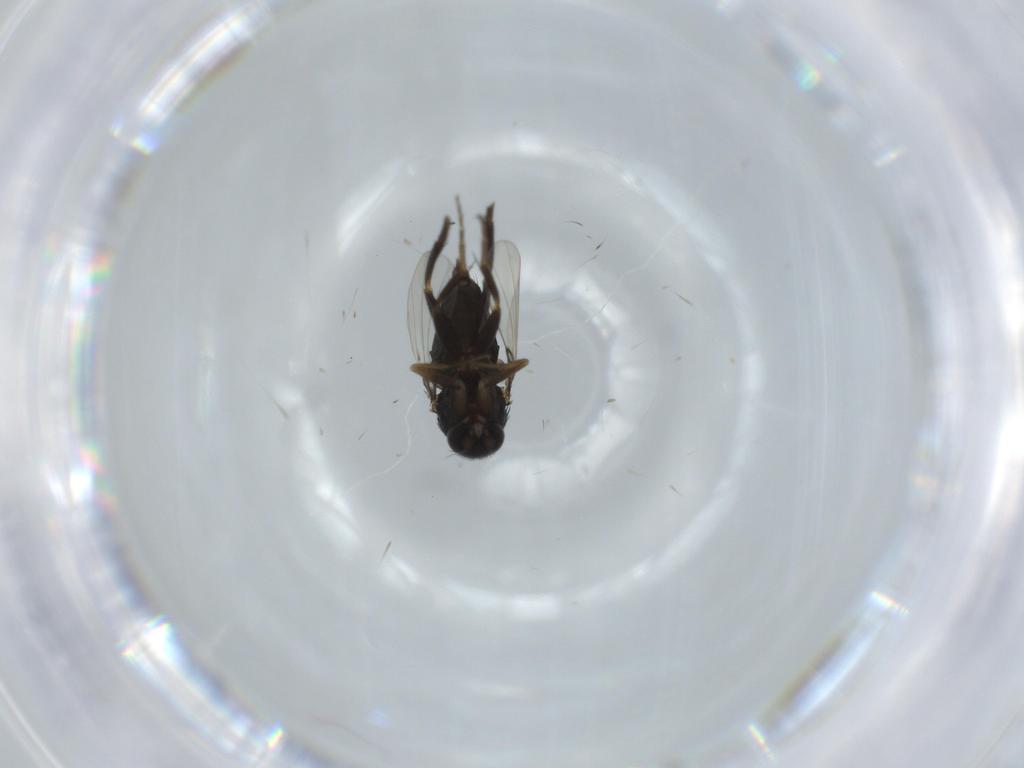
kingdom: Animalia
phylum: Arthropoda
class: Insecta
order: Diptera
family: Phoridae
